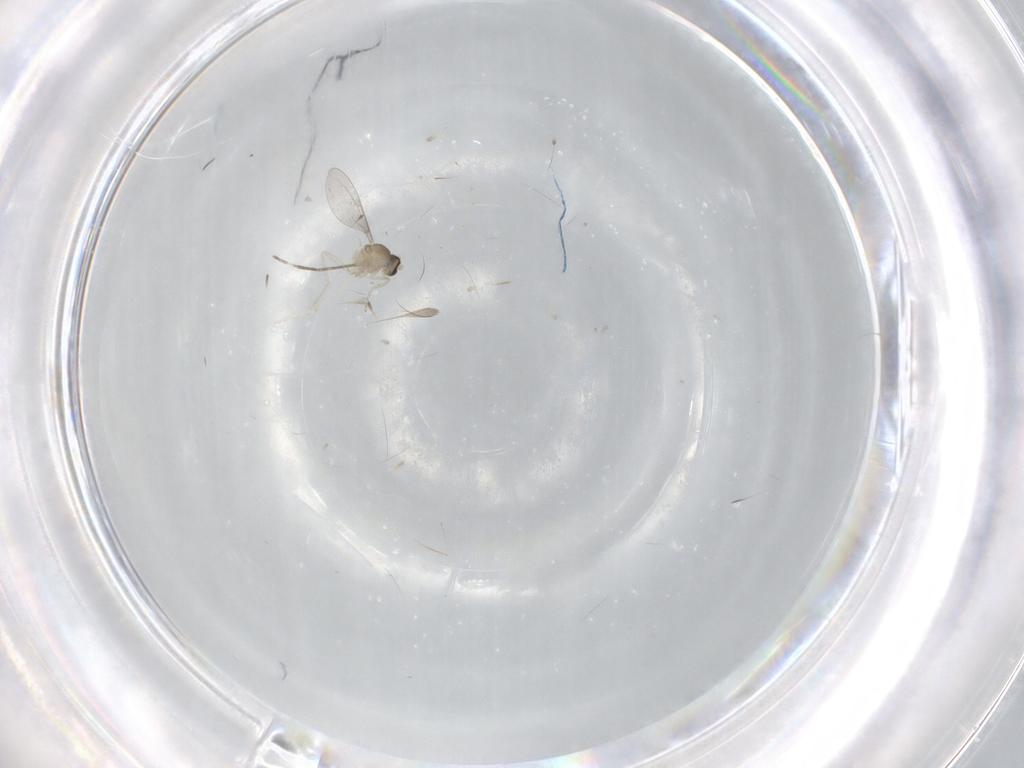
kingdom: Animalia
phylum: Arthropoda
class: Insecta
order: Diptera
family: Cecidomyiidae
